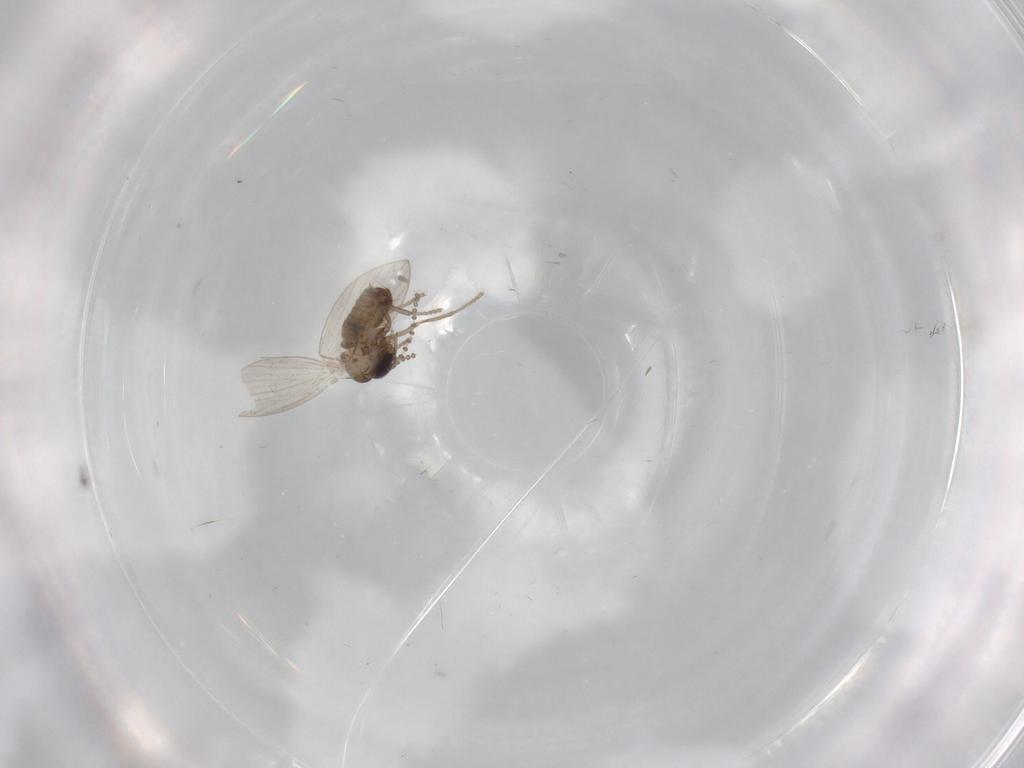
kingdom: Animalia
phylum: Arthropoda
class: Insecta
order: Diptera
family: Psychodidae
